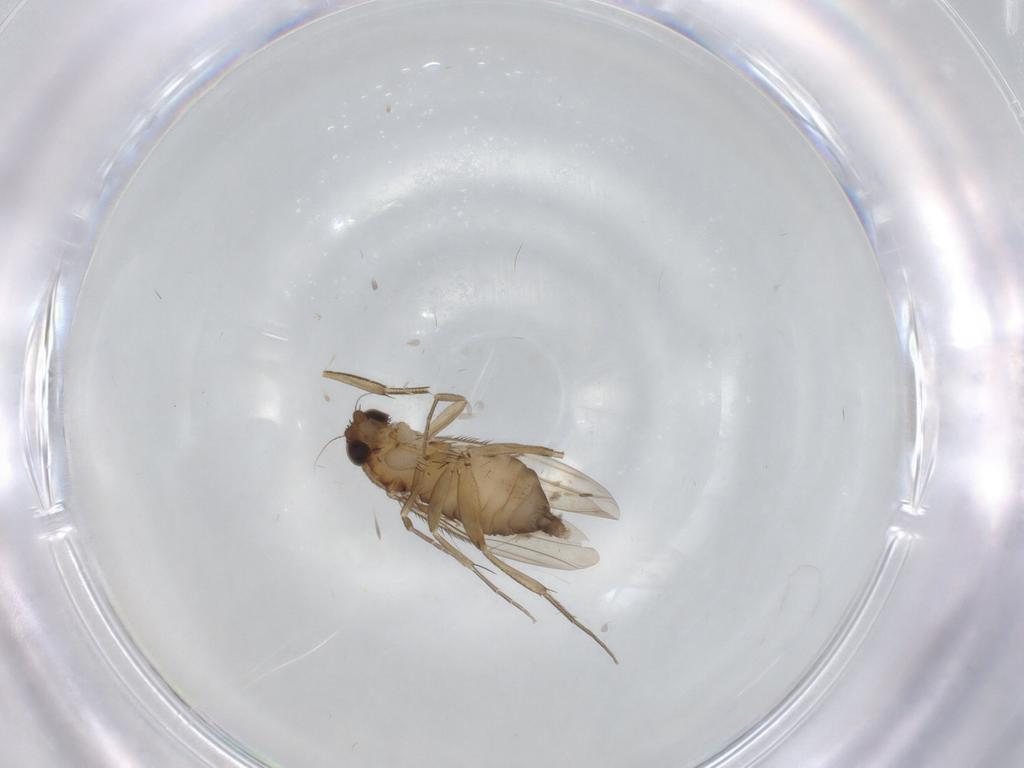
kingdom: Animalia
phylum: Arthropoda
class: Insecta
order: Diptera
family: Phoridae
